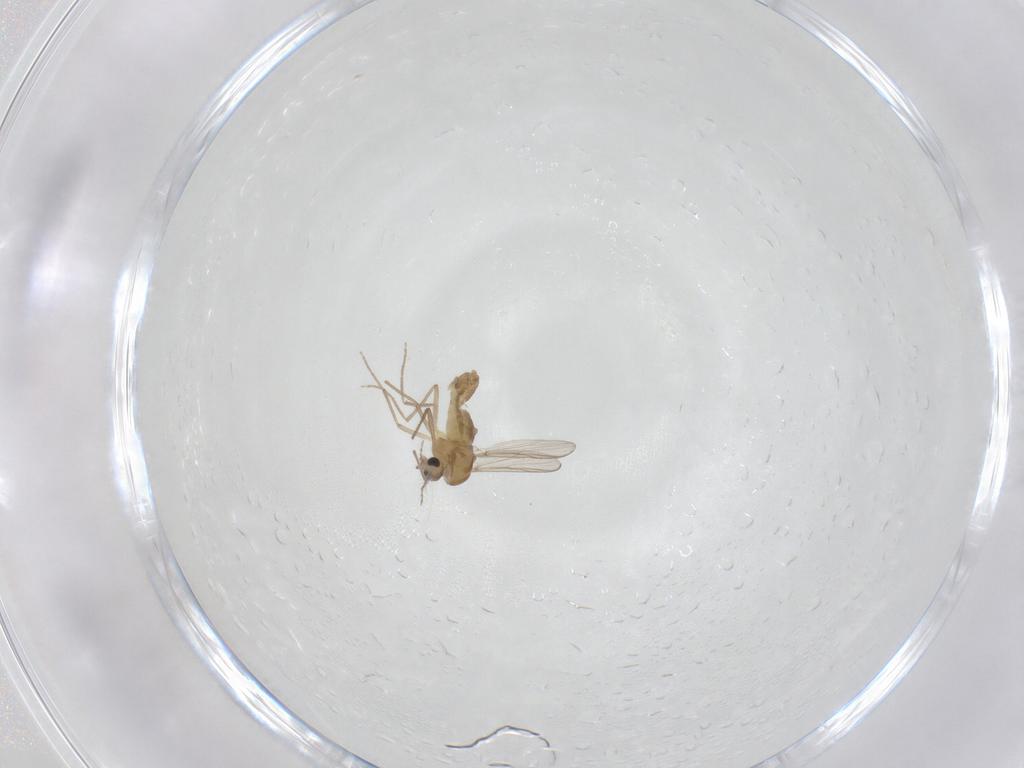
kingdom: Animalia
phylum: Arthropoda
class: Insecta
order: Diptera
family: Chironomidae
